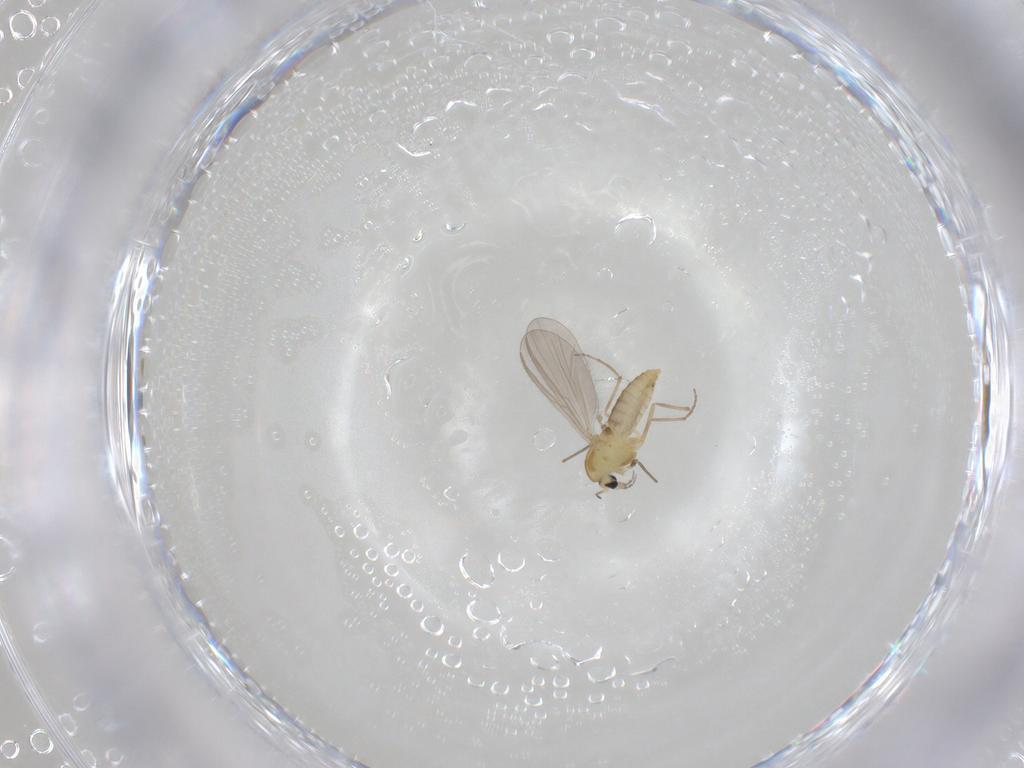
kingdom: Animalia
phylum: Arthropoda
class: Insecta
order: Diptera
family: Chironomidae
